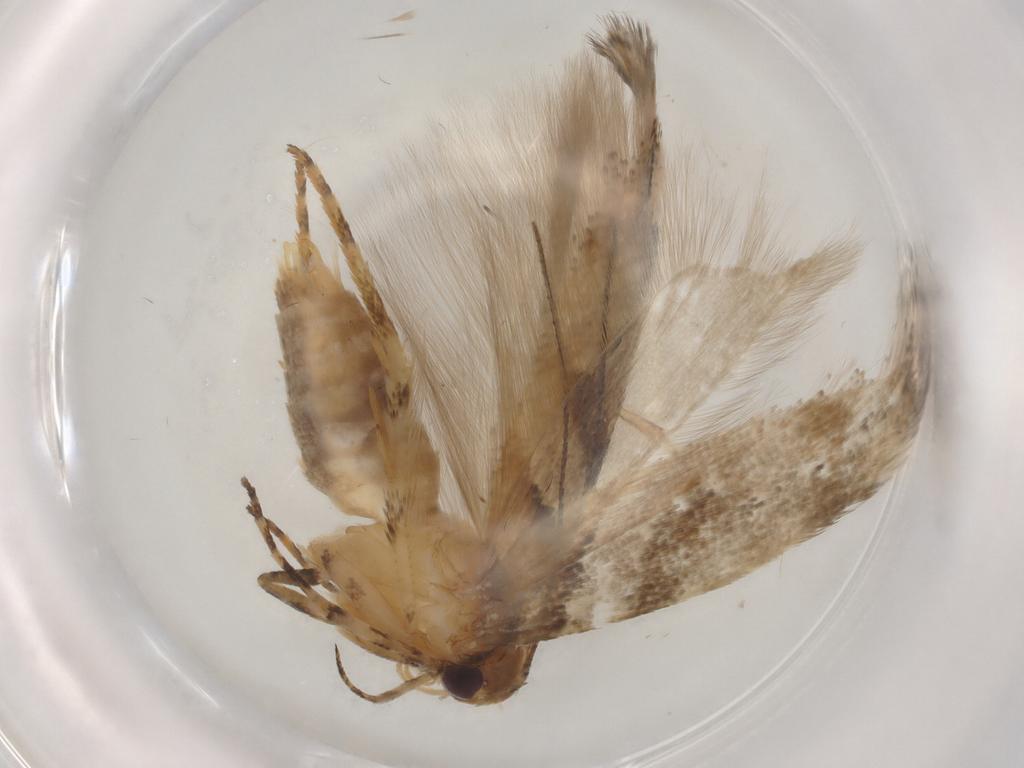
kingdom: Animalia
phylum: Arthropoda
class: Insecta
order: Lepidoptera
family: Gelechiidae
